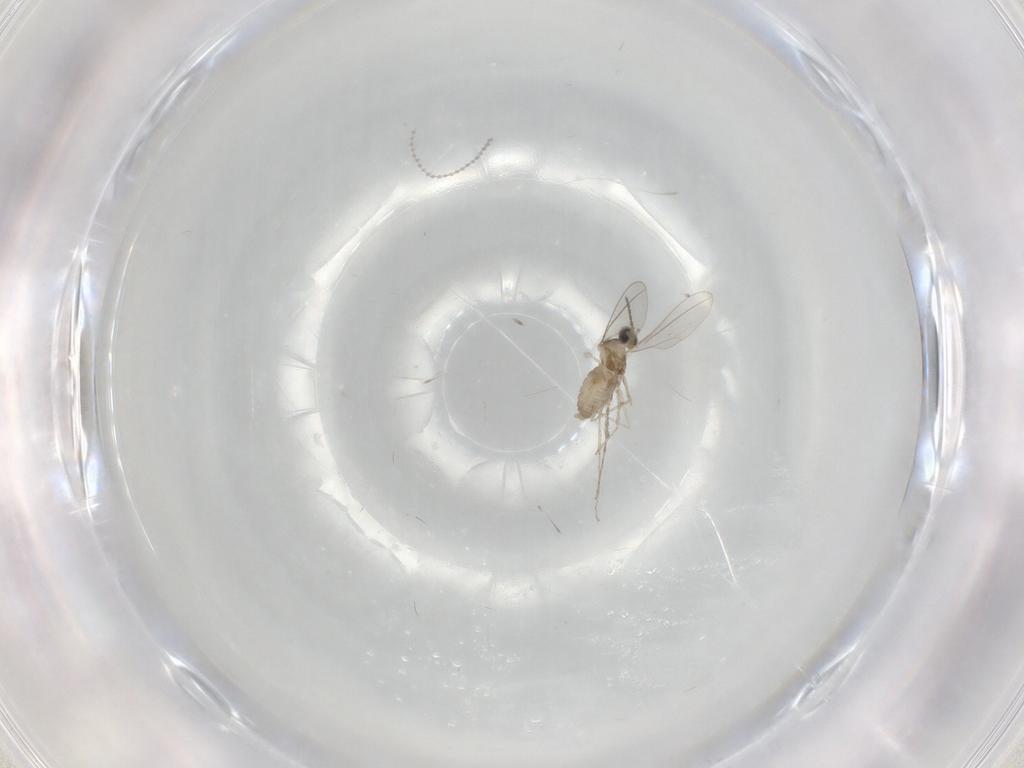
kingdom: Animalia
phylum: Arthropoda
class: Insecta
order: Diptera
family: Cecidomyiidae
